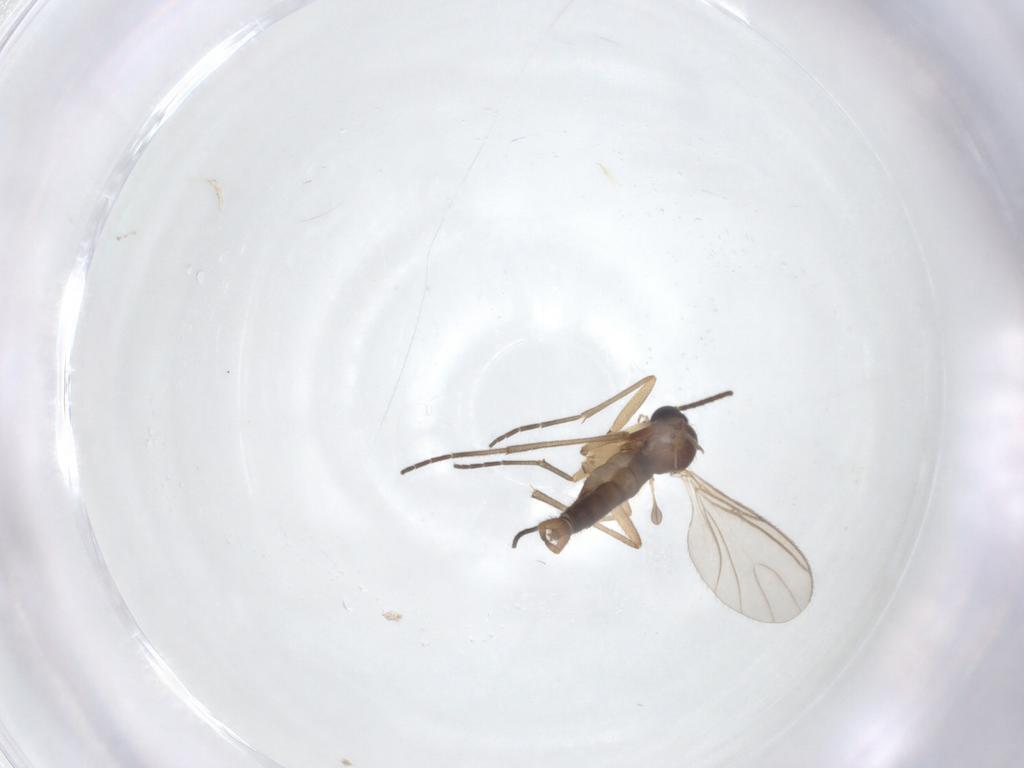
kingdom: Animalia
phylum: Arthropoda
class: Insecta
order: Diptera
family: Sciaridae
